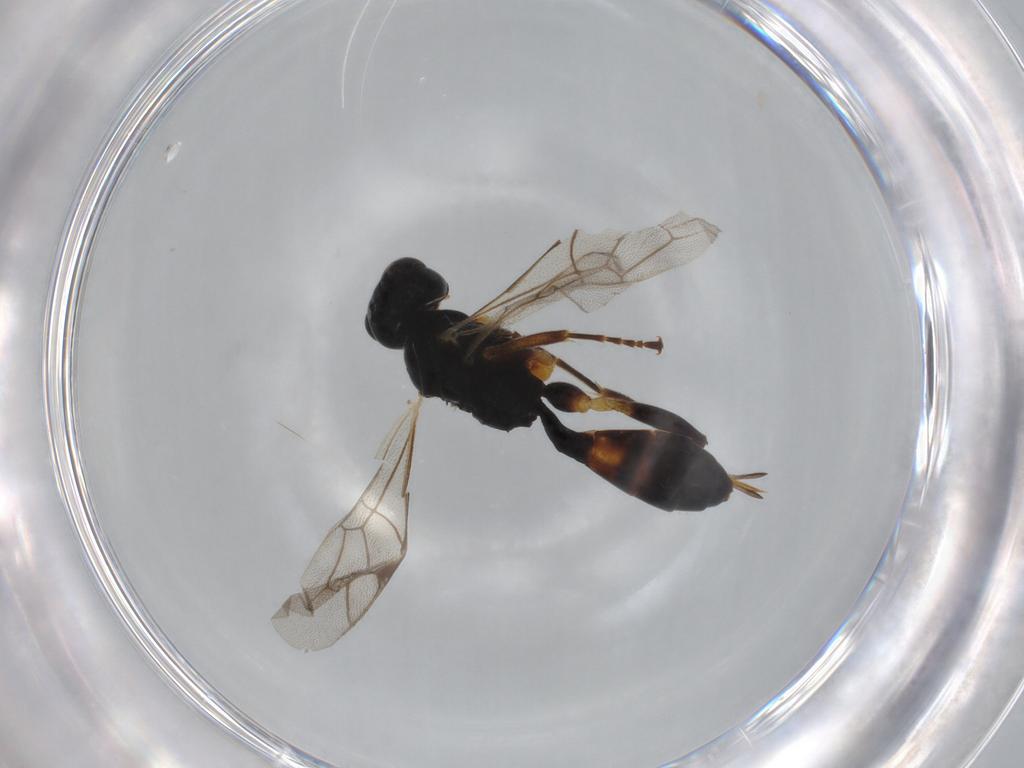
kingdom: Animalia
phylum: Arthropoda
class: Insecta
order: Hymenoptera
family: Ichneumonidae
